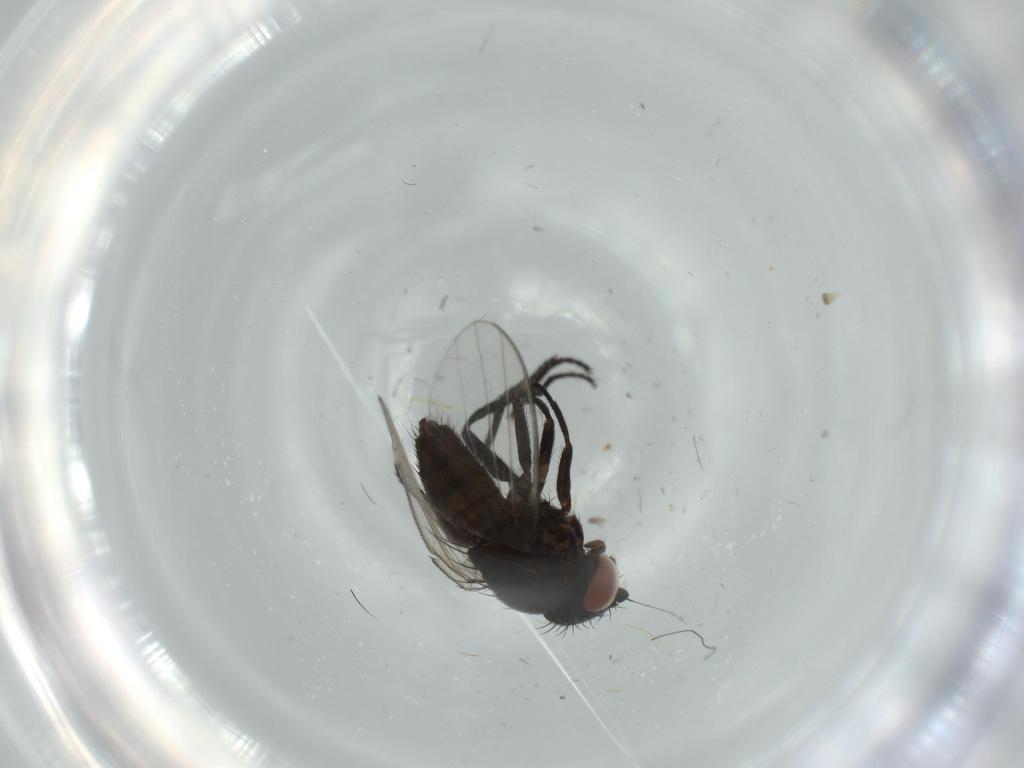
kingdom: Animalia
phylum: Arthropoda
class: Insecta
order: Diptera
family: Milichiidae
